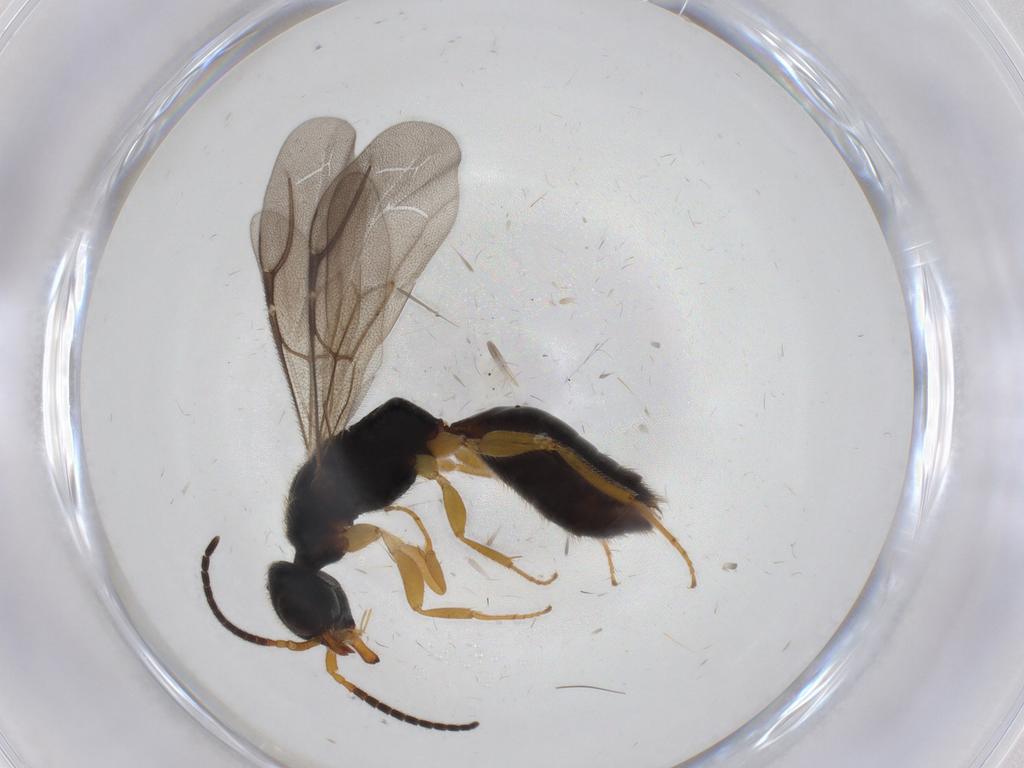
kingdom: Animalia
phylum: Arthropoda
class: Insecta
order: Hymenoptera
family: Bethylidae
